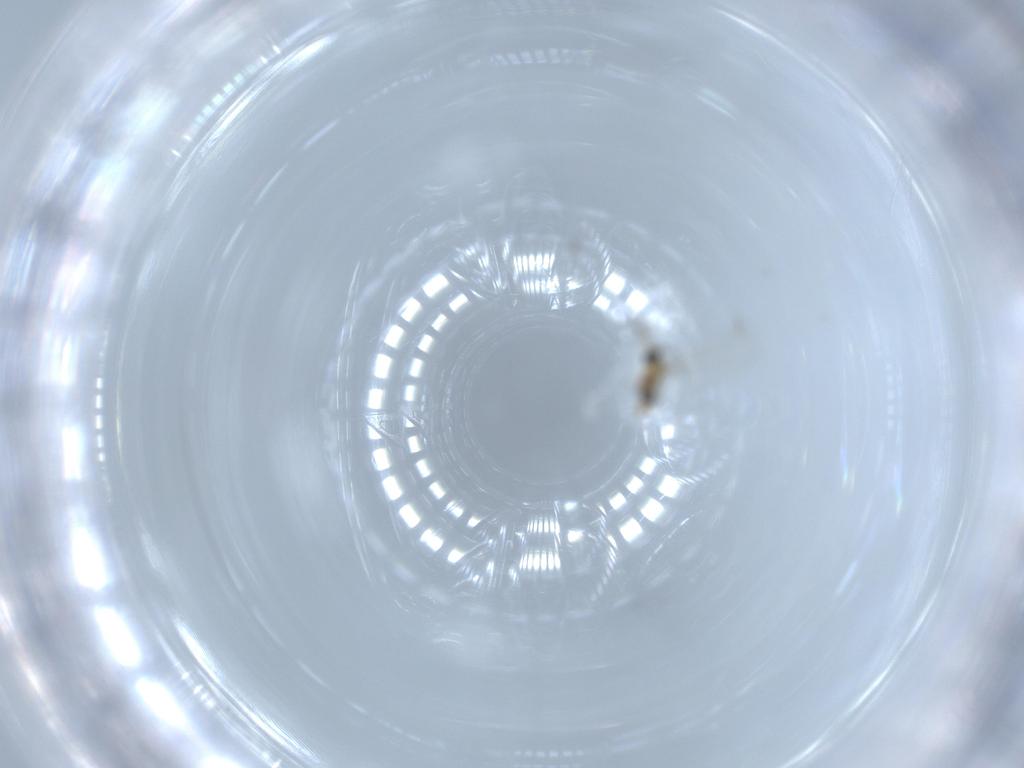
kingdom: Animalia
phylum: Arthropoda
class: Insecta
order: Diptera
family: Cecidomyiidae
